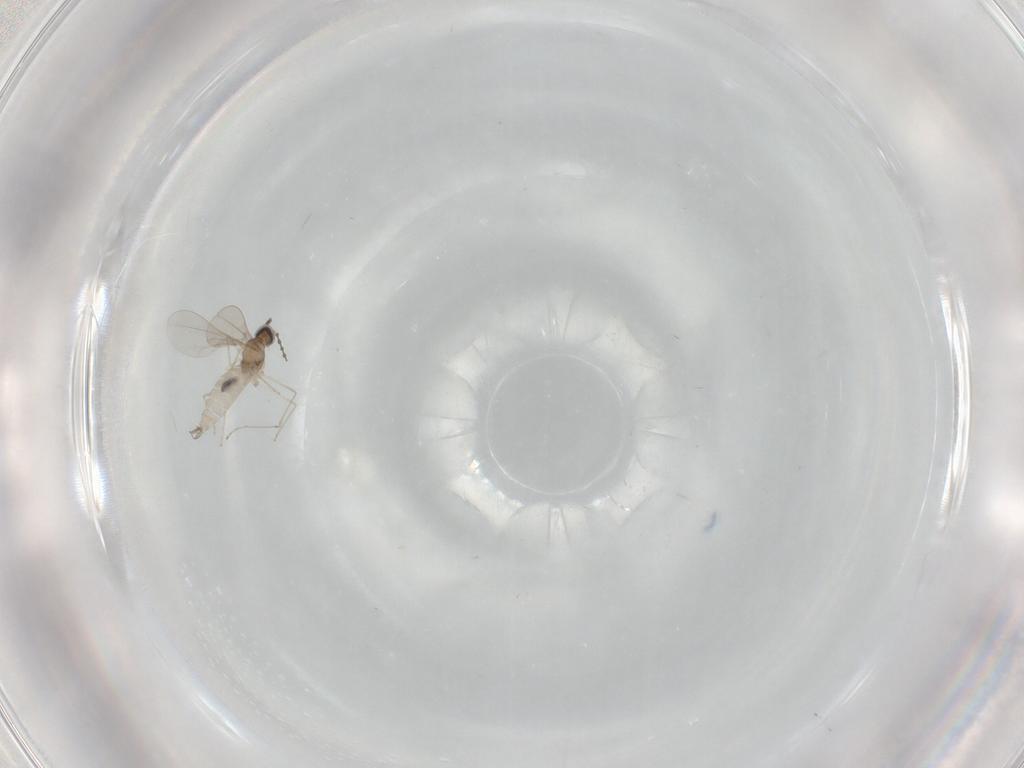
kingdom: Animalia
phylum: Arthropoda
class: Insecta
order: Diptera
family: Cecidomyiidae
